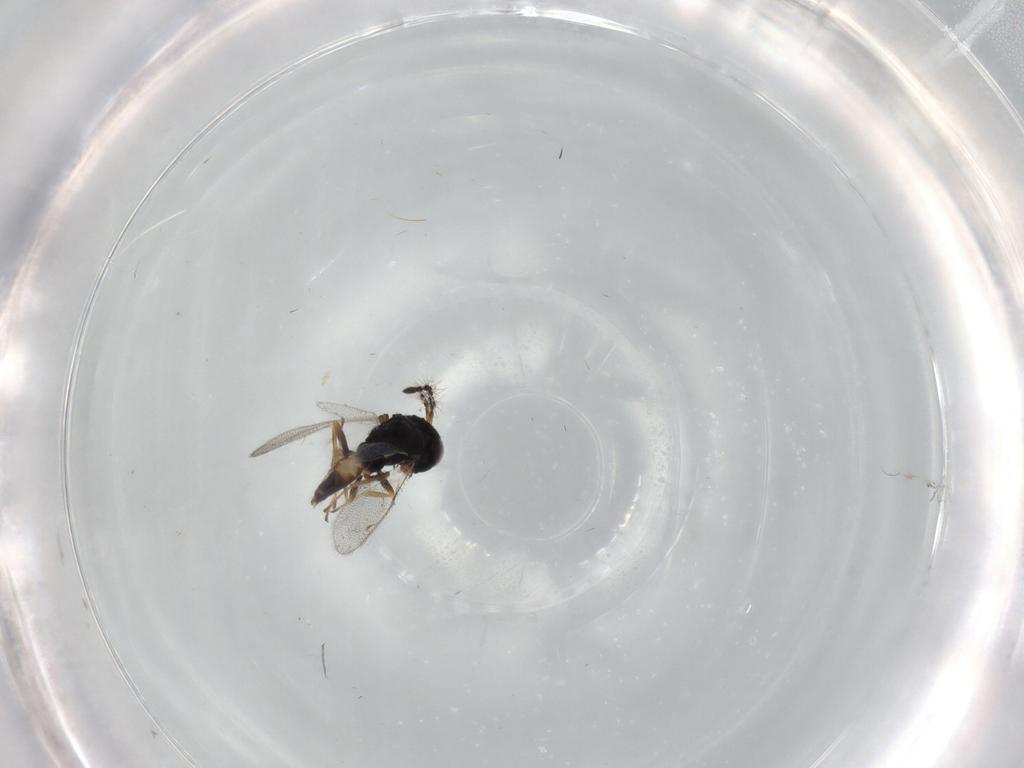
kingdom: Animalia
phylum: Arthropoda
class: Insecta
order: Hymenoptera
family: Pteromalidae
